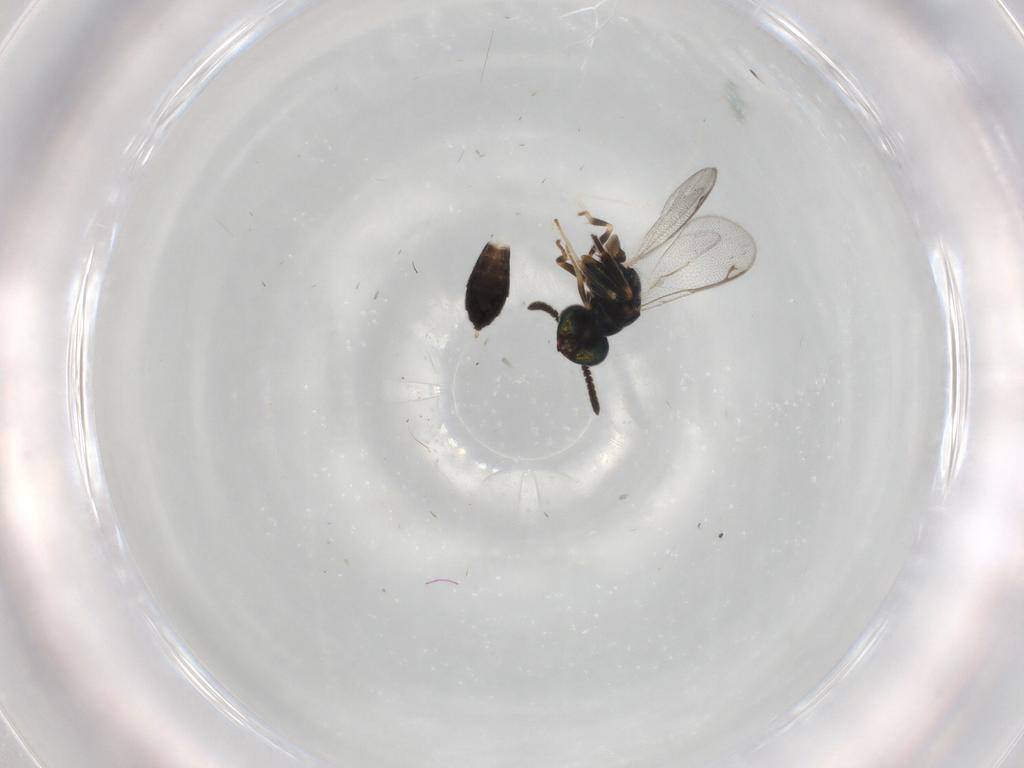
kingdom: Animalia
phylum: Arthropoda
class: Insecta
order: Hymenoptera
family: Cleonyminae
